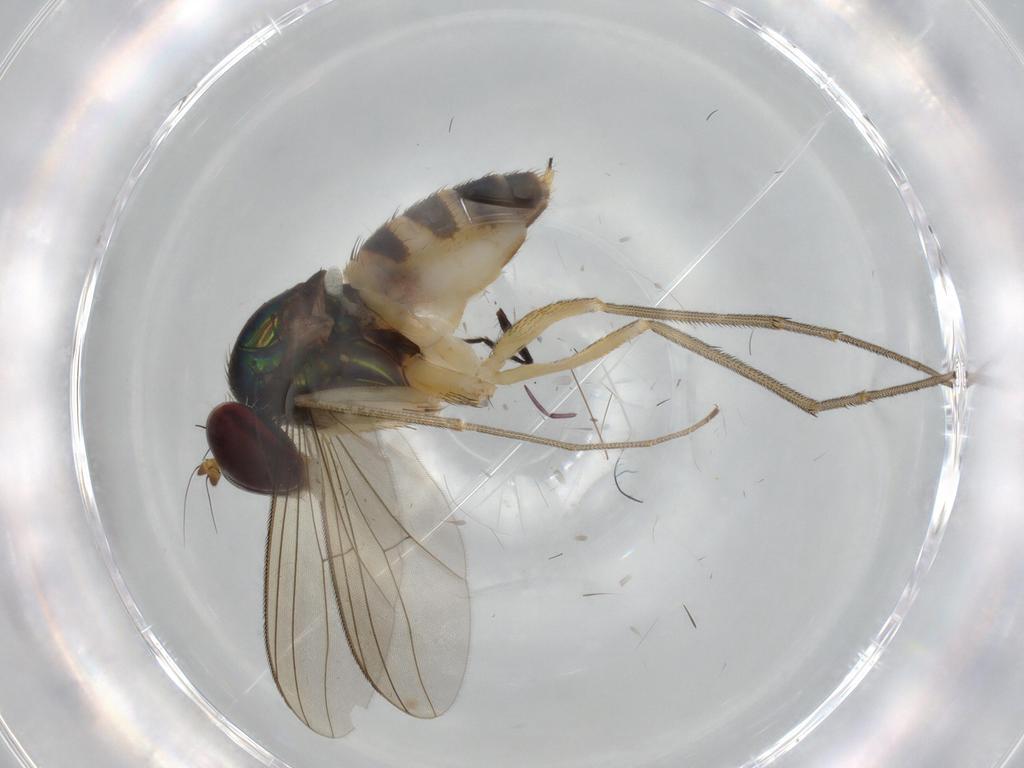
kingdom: Animalia
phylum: Arthropoda
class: Insecta
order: Diptera
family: Dolichopodidae
